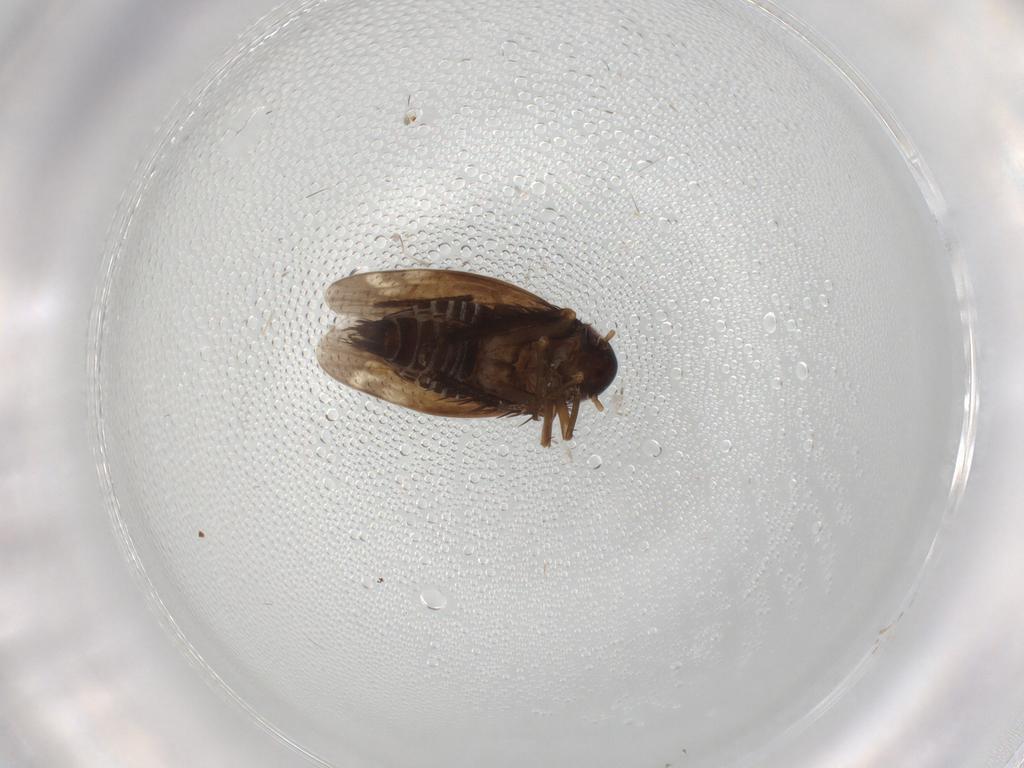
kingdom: Animalia
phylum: Arthropoda
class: Insecta
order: Hemiptera
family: Cicadellidae
